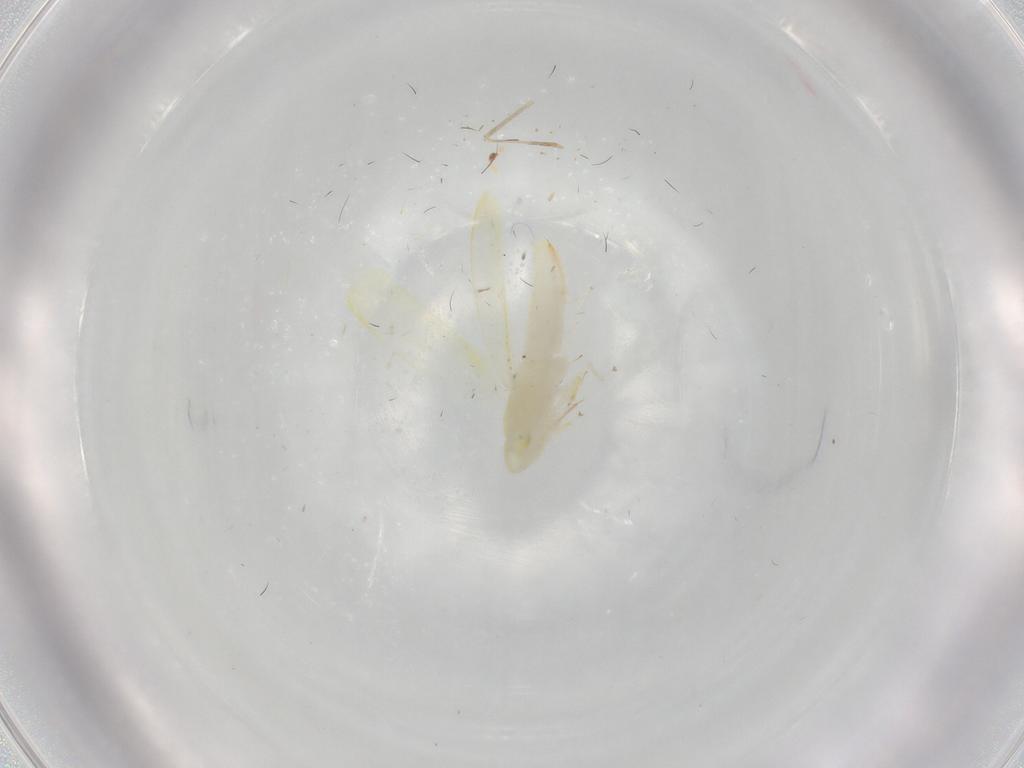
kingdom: Animalia
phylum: Arthropoda
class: Insecta
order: Hemiptera
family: Cicadellidae
